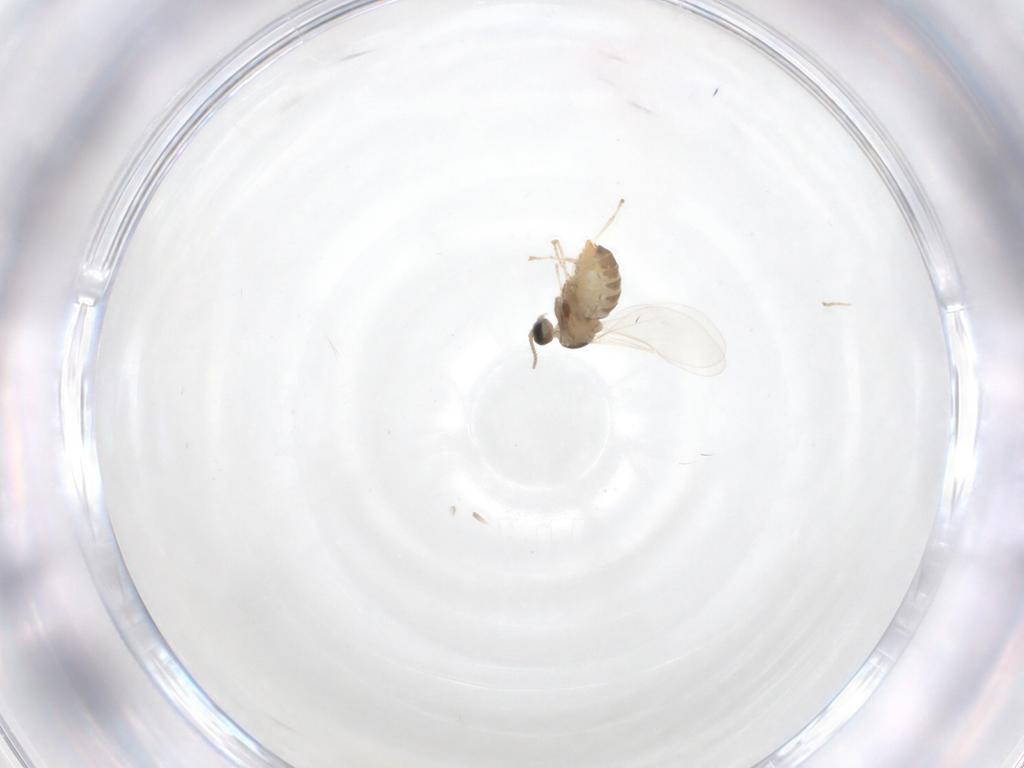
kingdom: Animalia
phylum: Arthropoda
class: Insecta
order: Diptera
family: Cecidomyiidae
